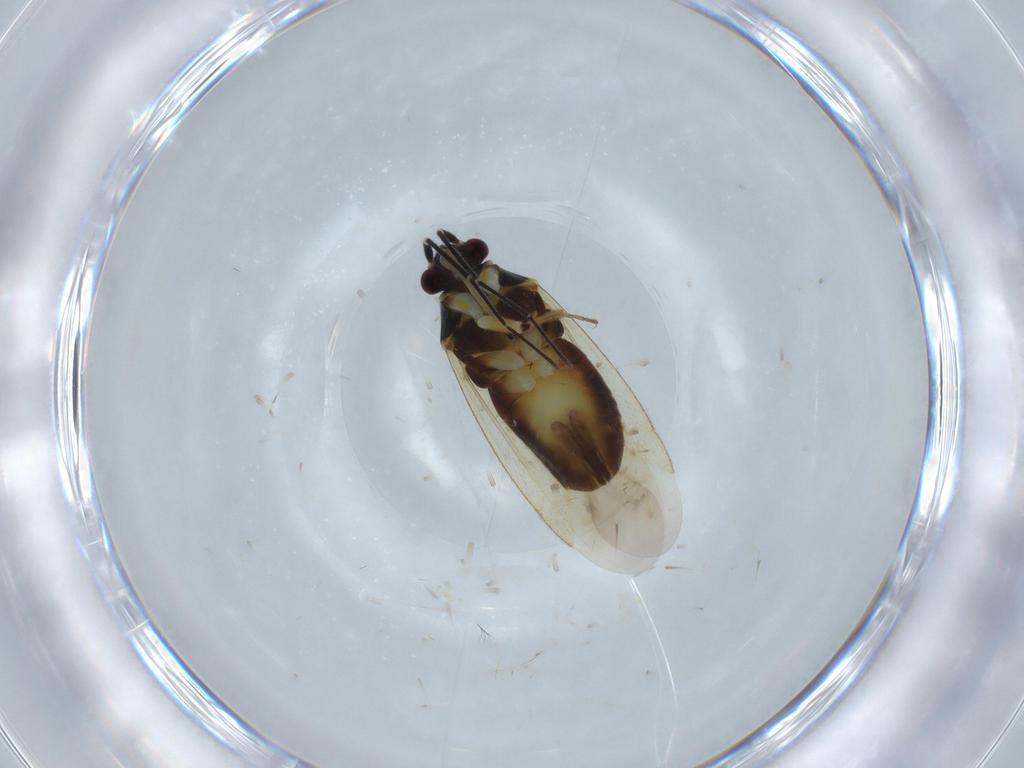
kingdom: Animalia
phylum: Arthropoda
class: Insecta
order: Hemiptera
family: Miridae
